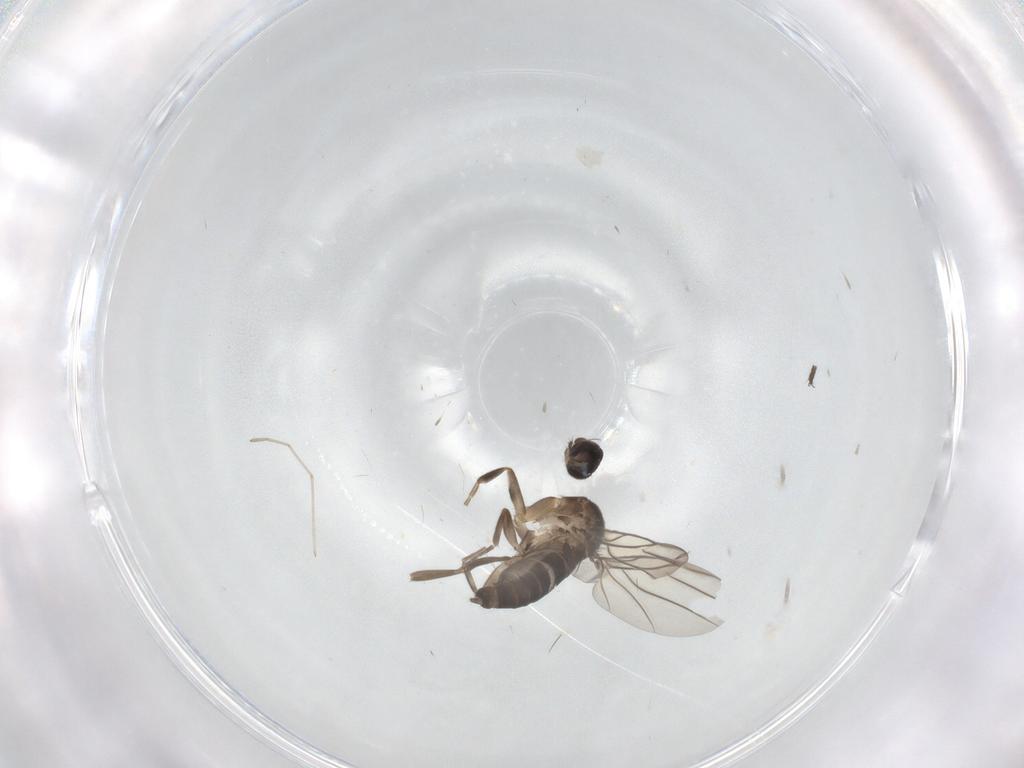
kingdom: Animalia
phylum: Arthropoda
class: Insecta
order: Diptera
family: Phoridae
